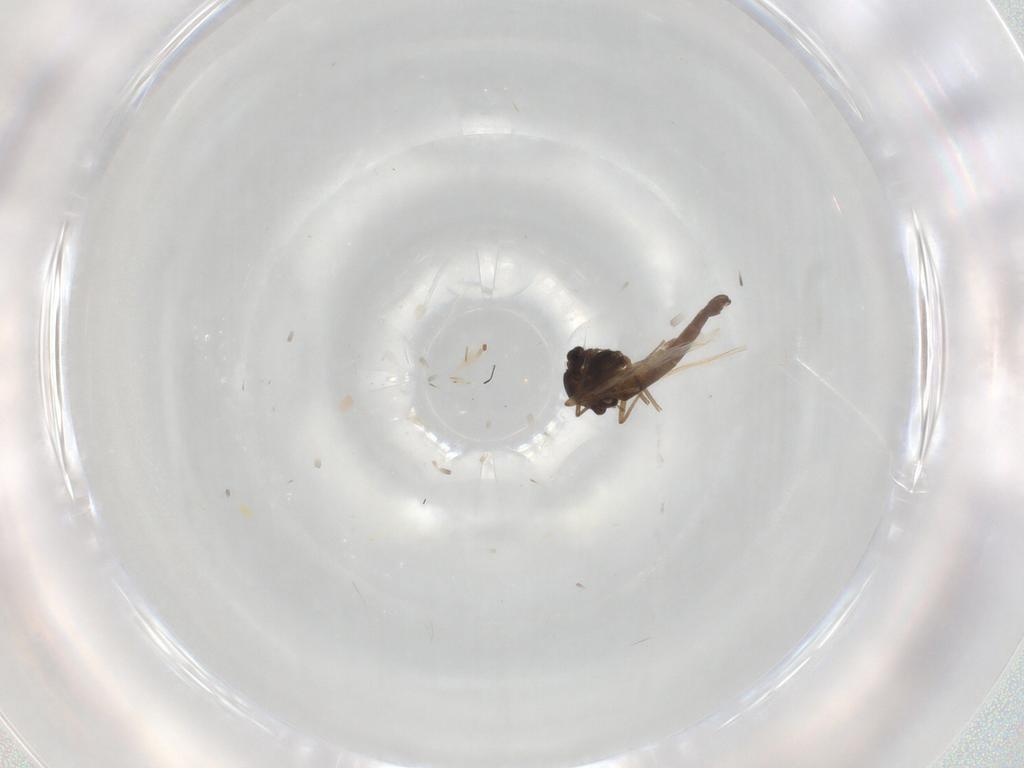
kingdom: Animalia
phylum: Arthropoda
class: Insecta
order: Diptera
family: Chironomidae
